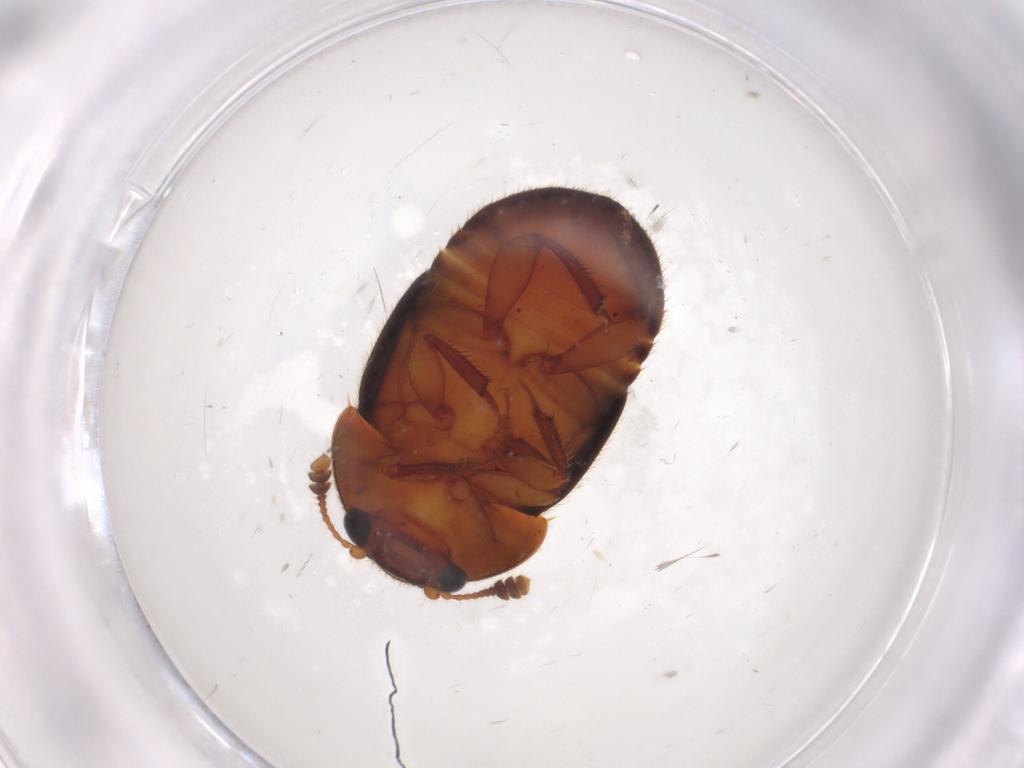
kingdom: Animalia
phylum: Arthropoda
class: Insecta
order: Coleoptera
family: Nitidulidae
